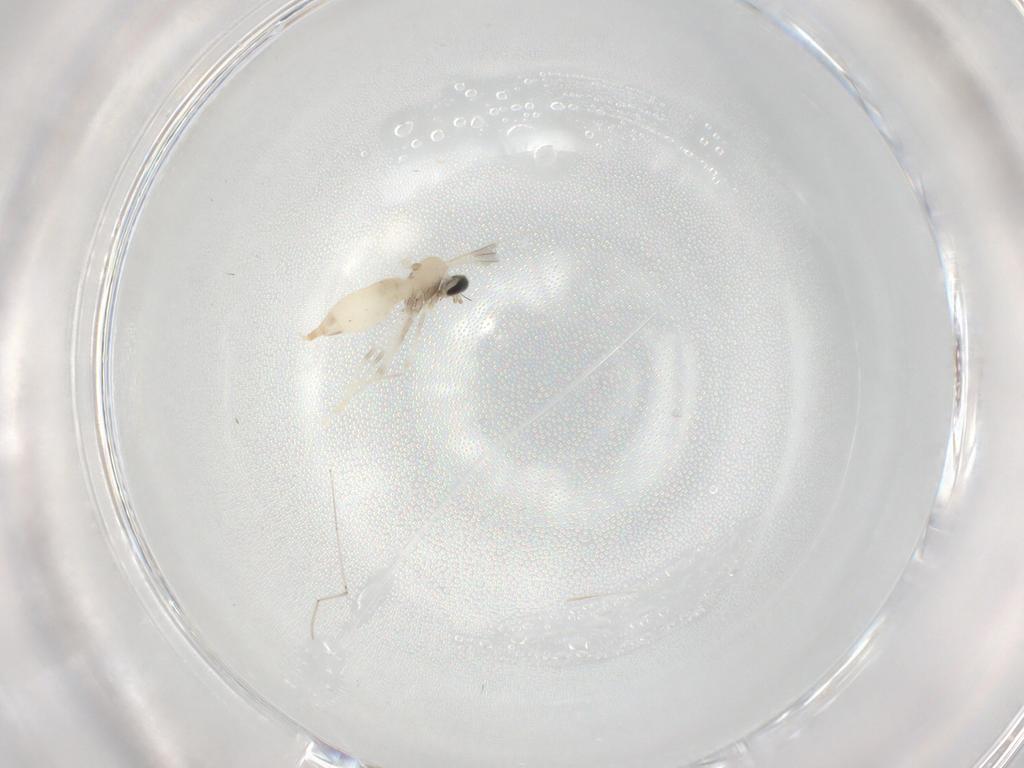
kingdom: Animalia
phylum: Arthropoda
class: Insecta
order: Diptera
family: Cecidomyiidae
